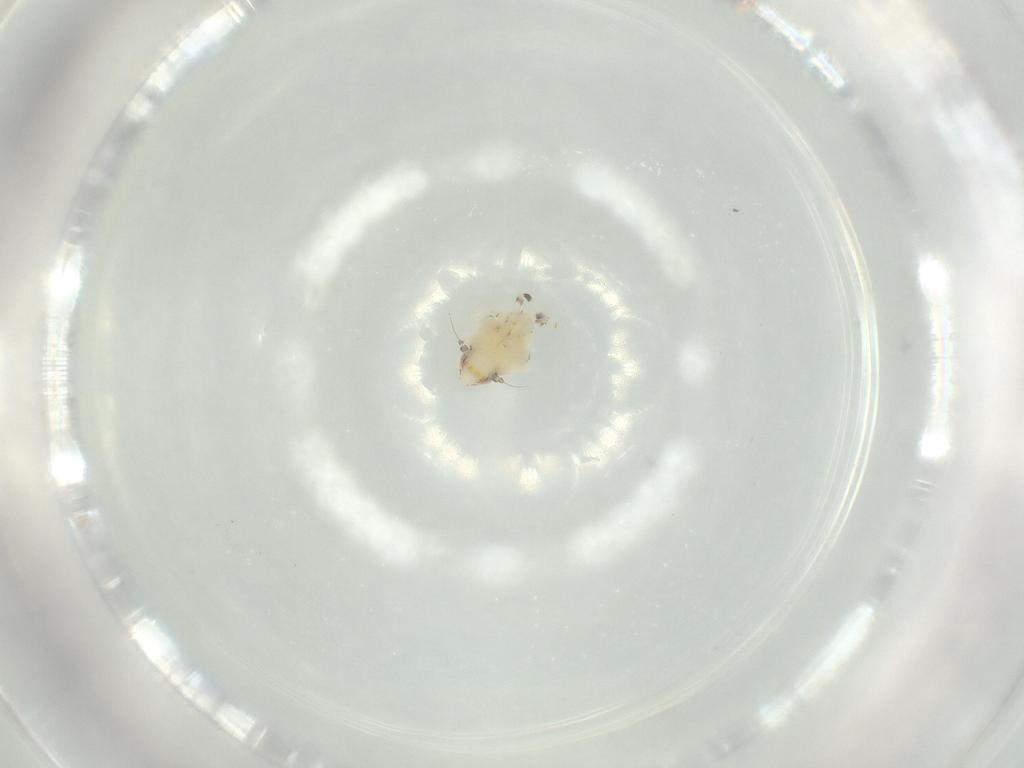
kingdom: Animalia
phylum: Arthropoda
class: Insecta
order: Hemiptera
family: Nogodinidae
